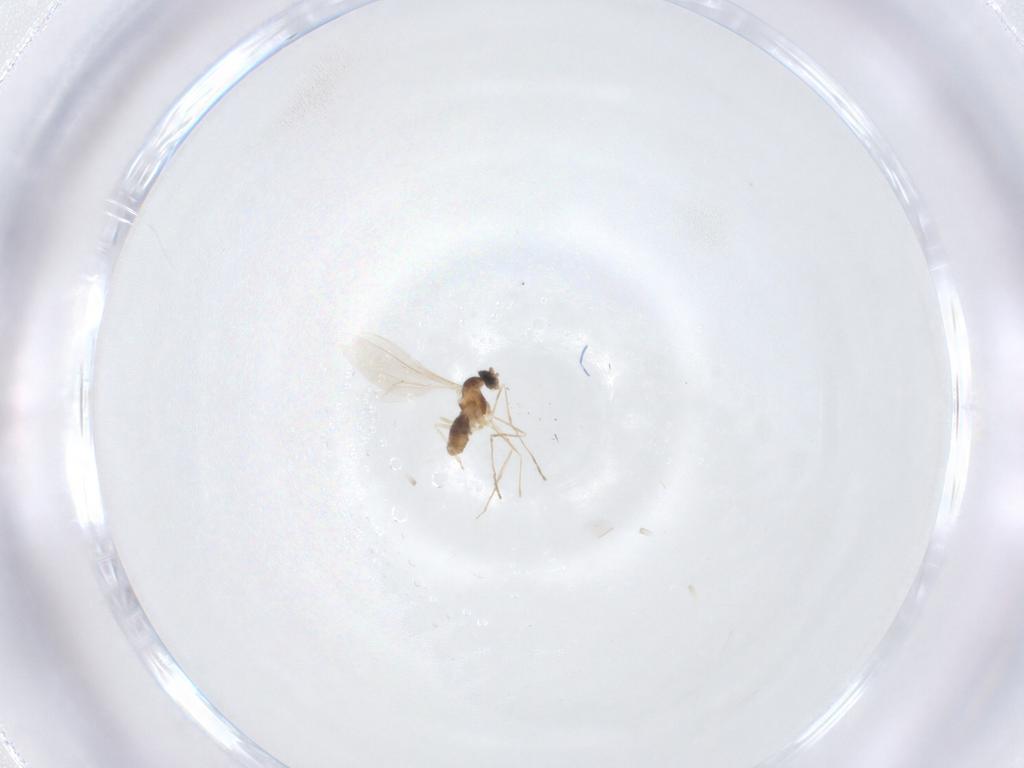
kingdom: Animalia
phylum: Arthropoda
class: Insecta
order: Diptera
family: Cecidomyiidae
